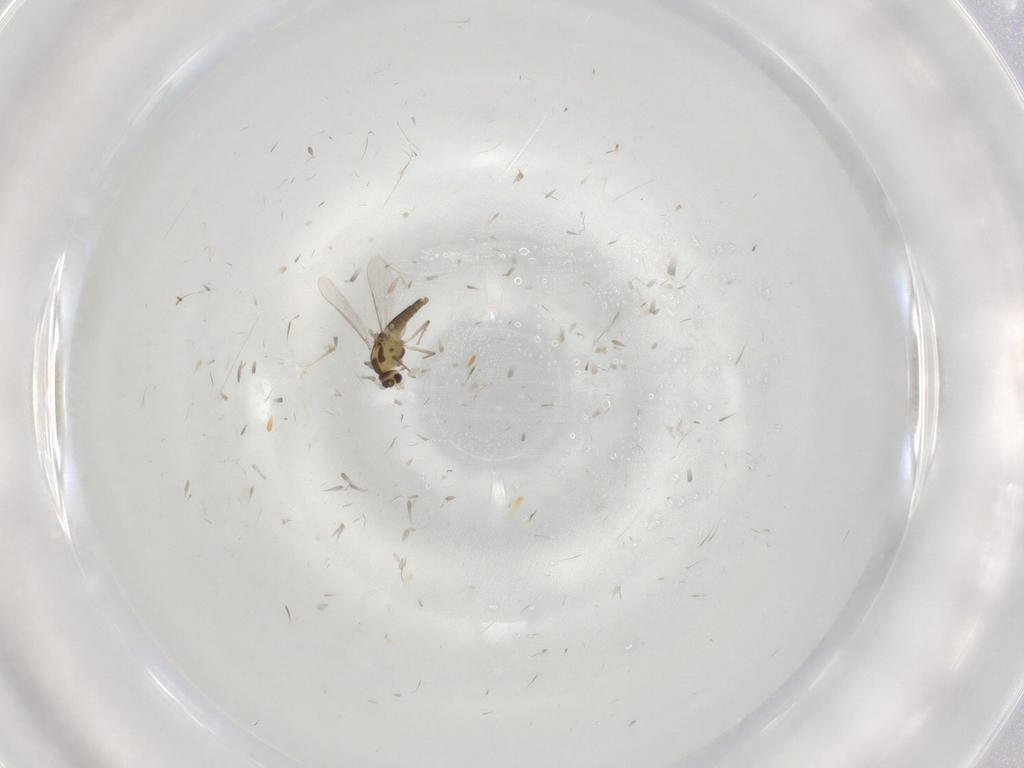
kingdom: Animalia
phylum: Arthropoda
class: Insecta
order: Diptera
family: Chironomidae
